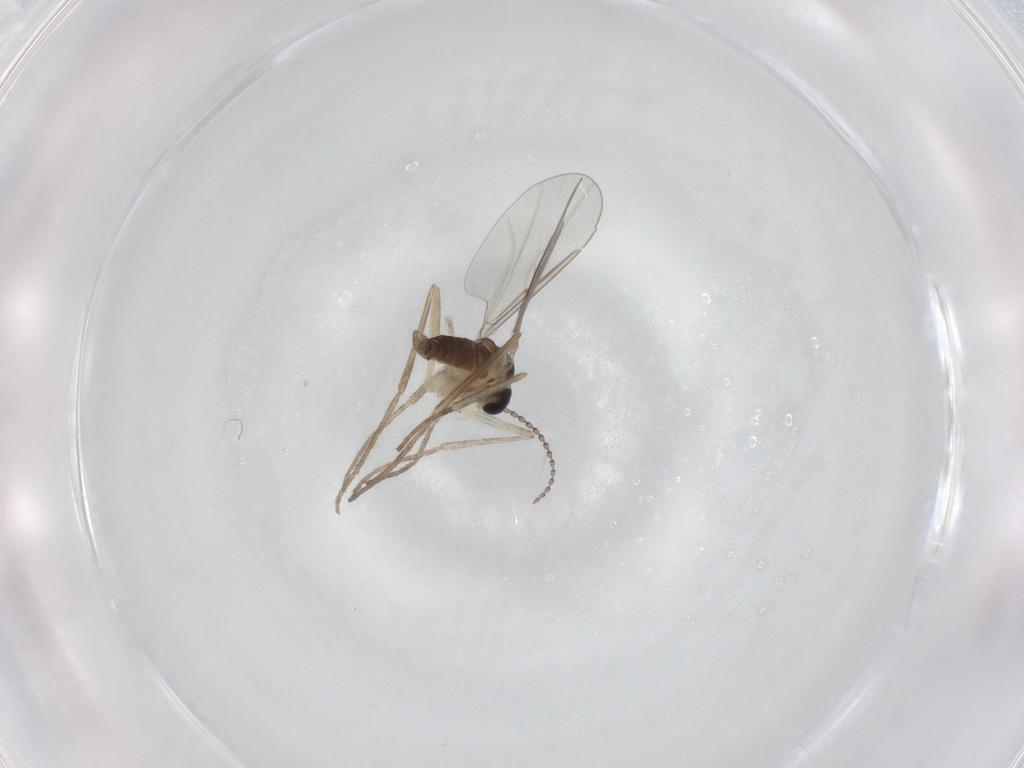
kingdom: Animalia
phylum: Arthropoda
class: Insecta
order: Diptera
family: Cecidomyiidae
